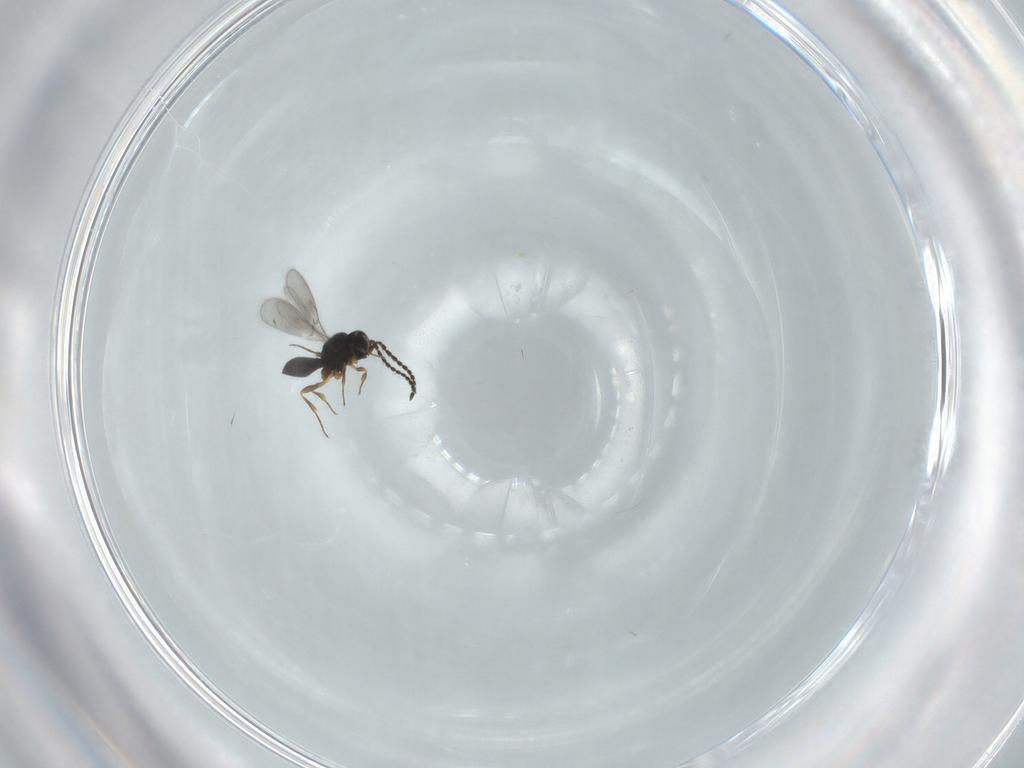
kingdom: Animalia
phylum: Arthropoda
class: Insecta
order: Hymenoptera
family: Scelionidae
